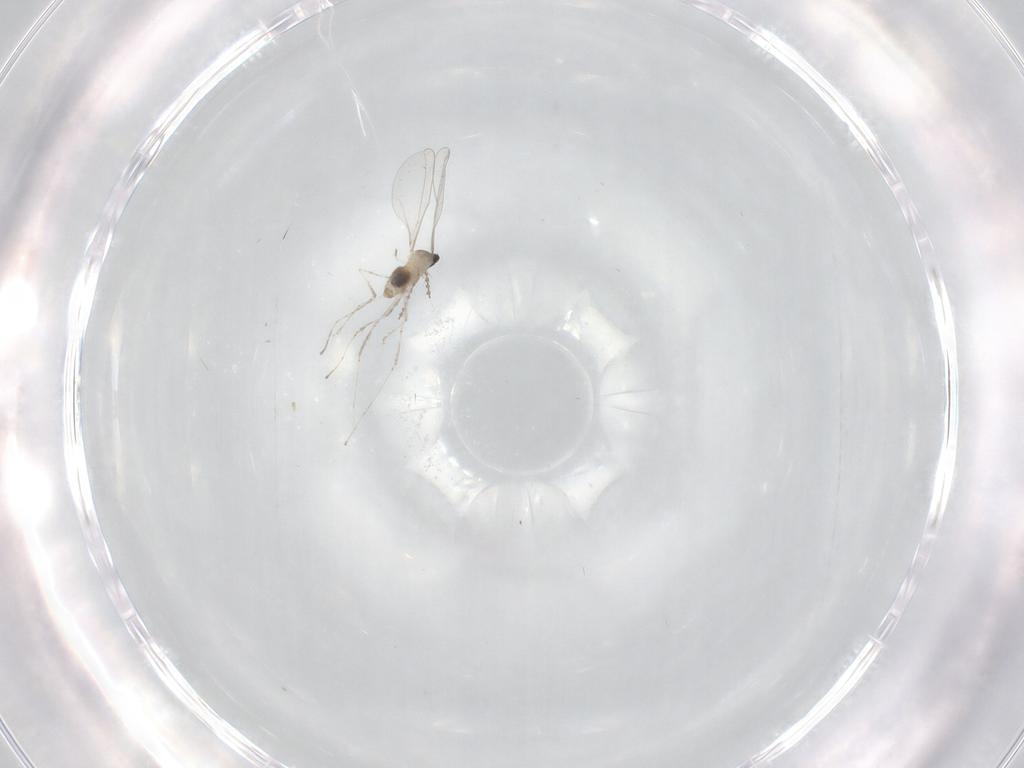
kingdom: Animalia
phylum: Arthropoda
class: Insecta
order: Diptera
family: Cecidomyiidae
